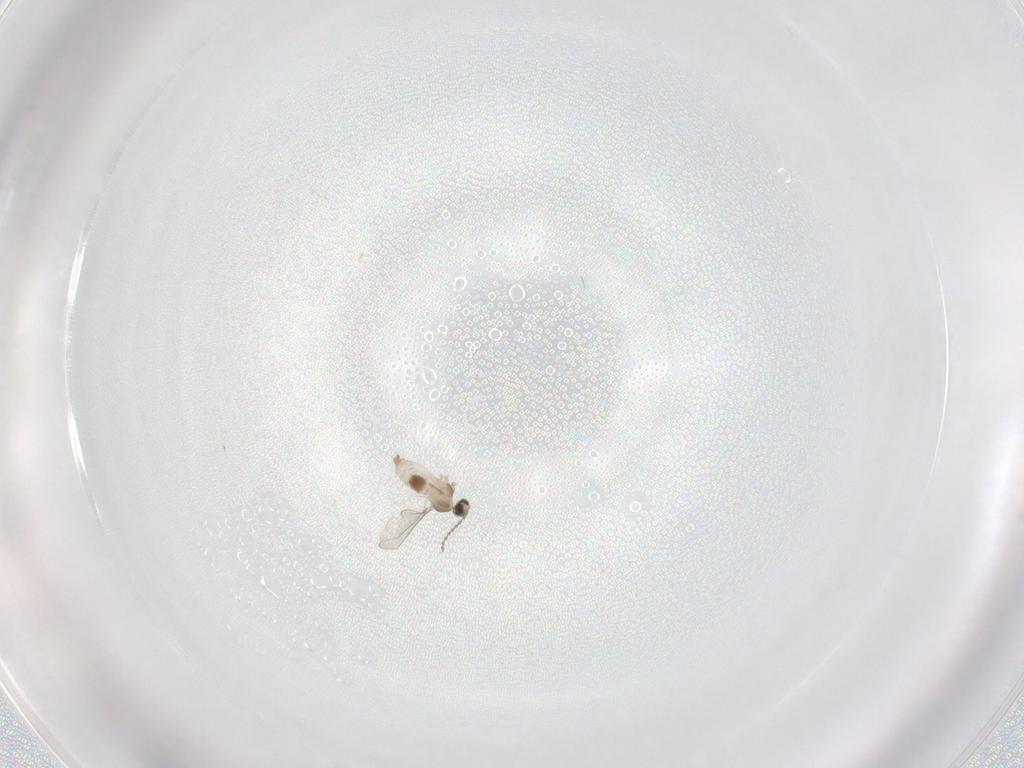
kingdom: Animalia
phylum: Arthropoda
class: Insecta
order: Diptera
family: Cecidomyiidae
